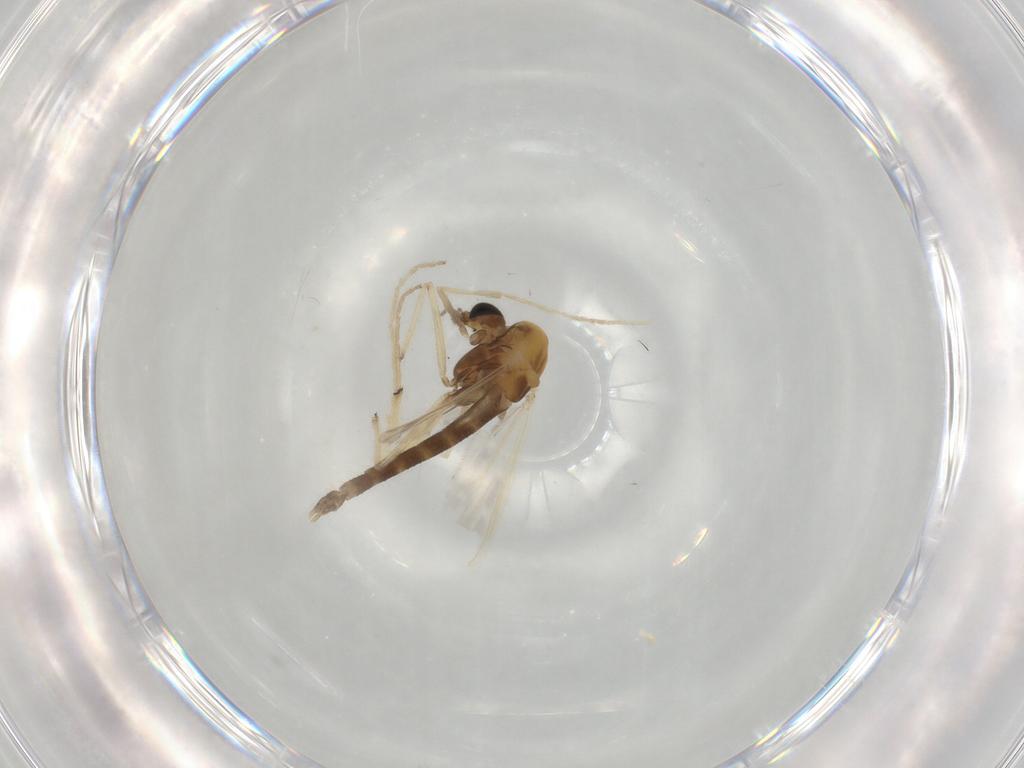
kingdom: Animalia
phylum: Arthropoda
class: Insecta
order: Diptera
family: Chironomidae
